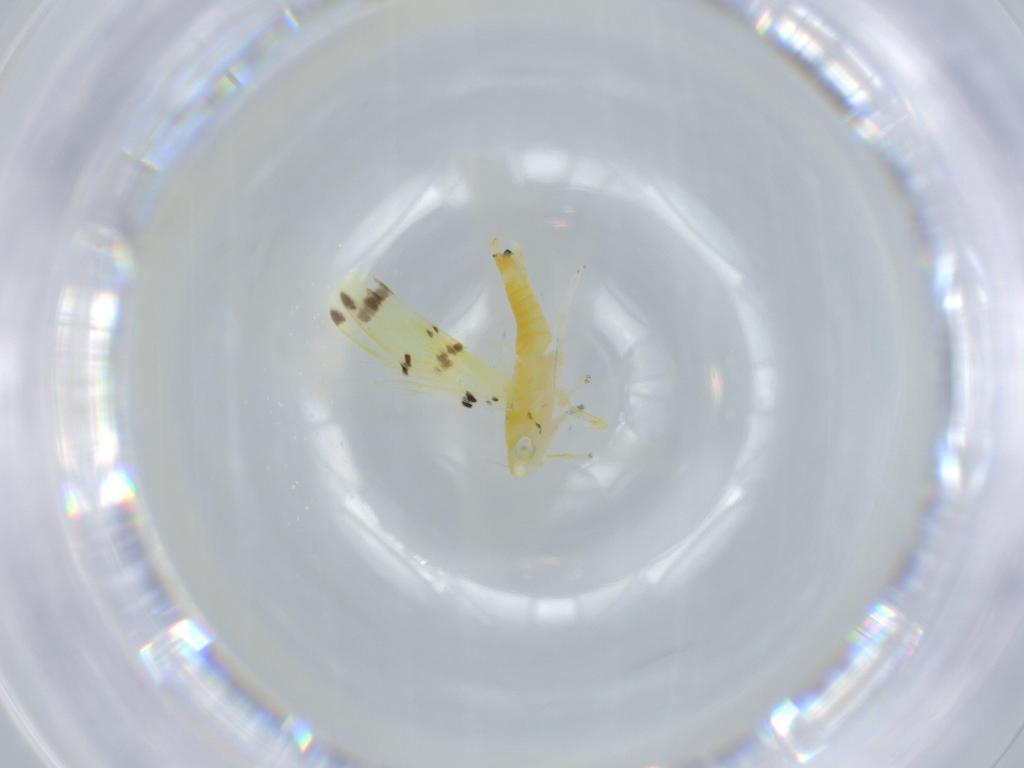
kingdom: Animalia
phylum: Arthropoda
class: Insecta
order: Hemiptera
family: Cicadellidae
